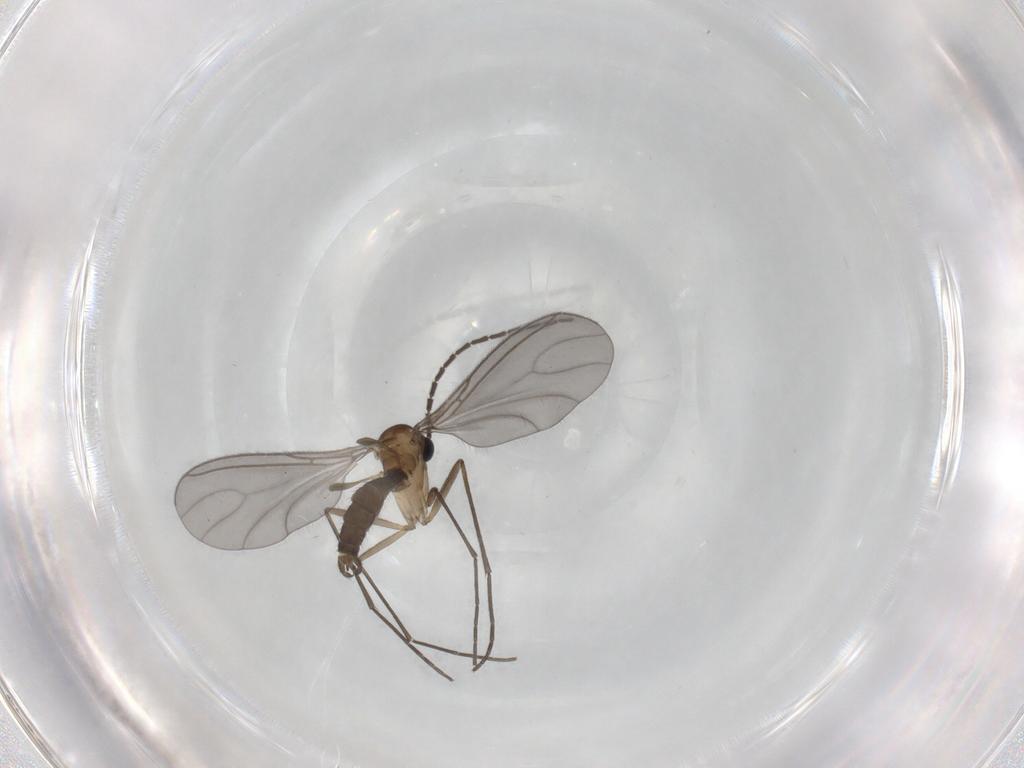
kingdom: Animalia
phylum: Arthropoda
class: Insecta
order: Diptera
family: Sciaridae
